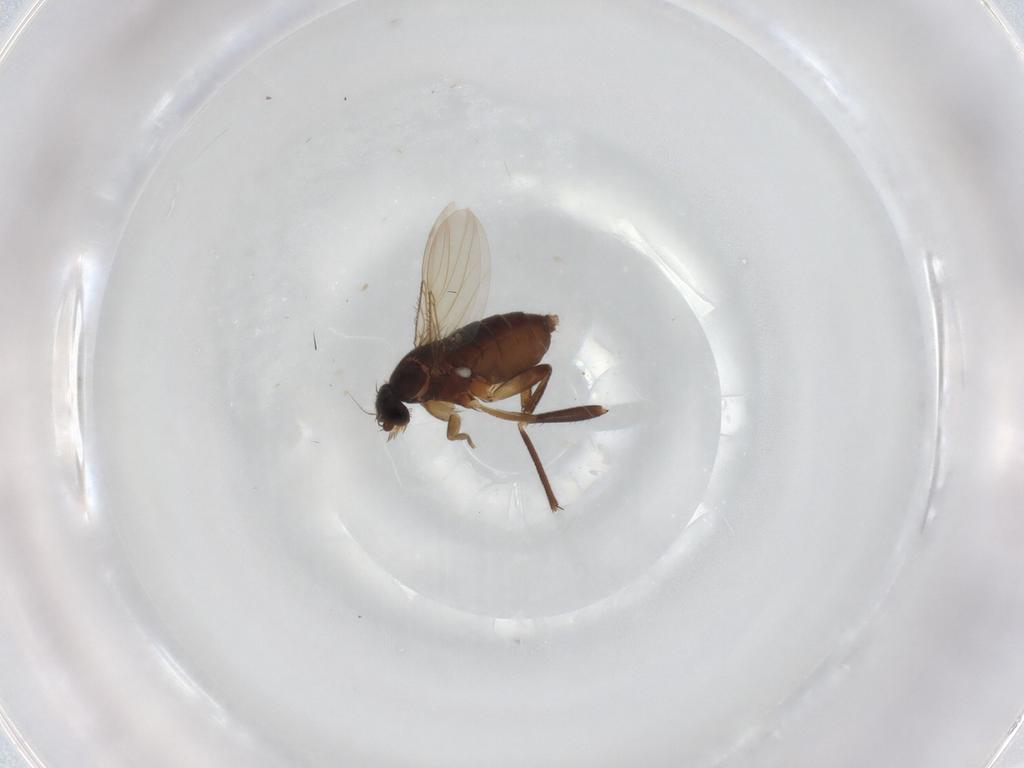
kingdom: Animalia
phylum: Arthropoda
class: Insecta
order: Diptera
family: Phoridae
